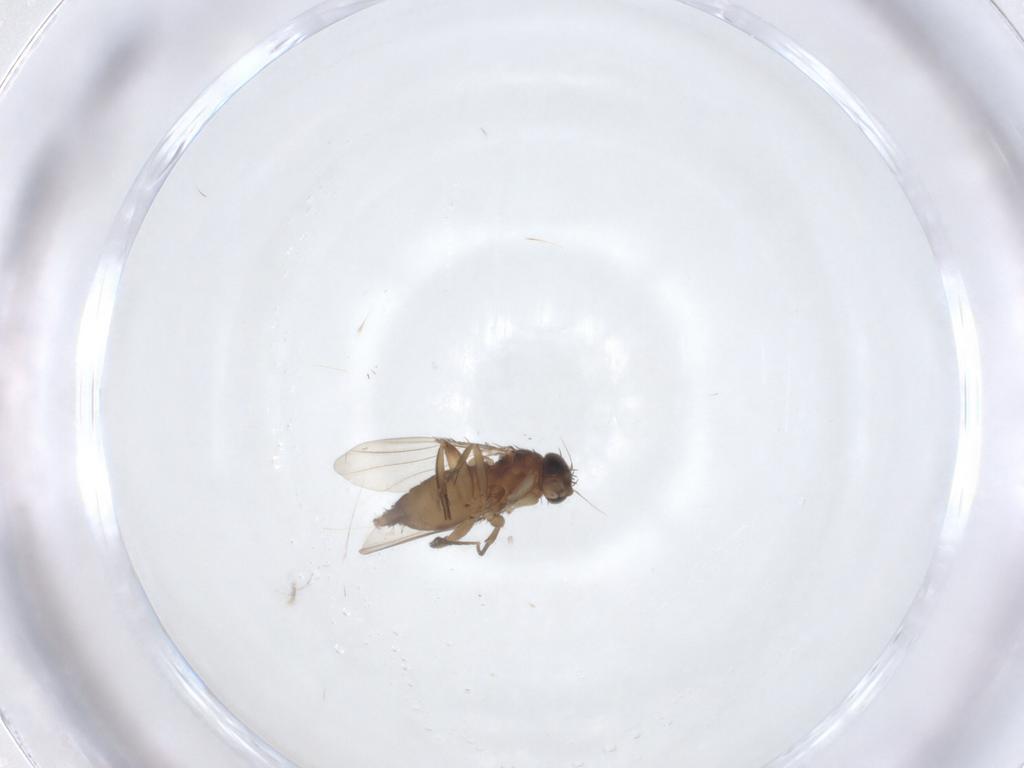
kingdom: Animalia
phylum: Arthropoda
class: Insecta
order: Diptera
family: Phoridae
